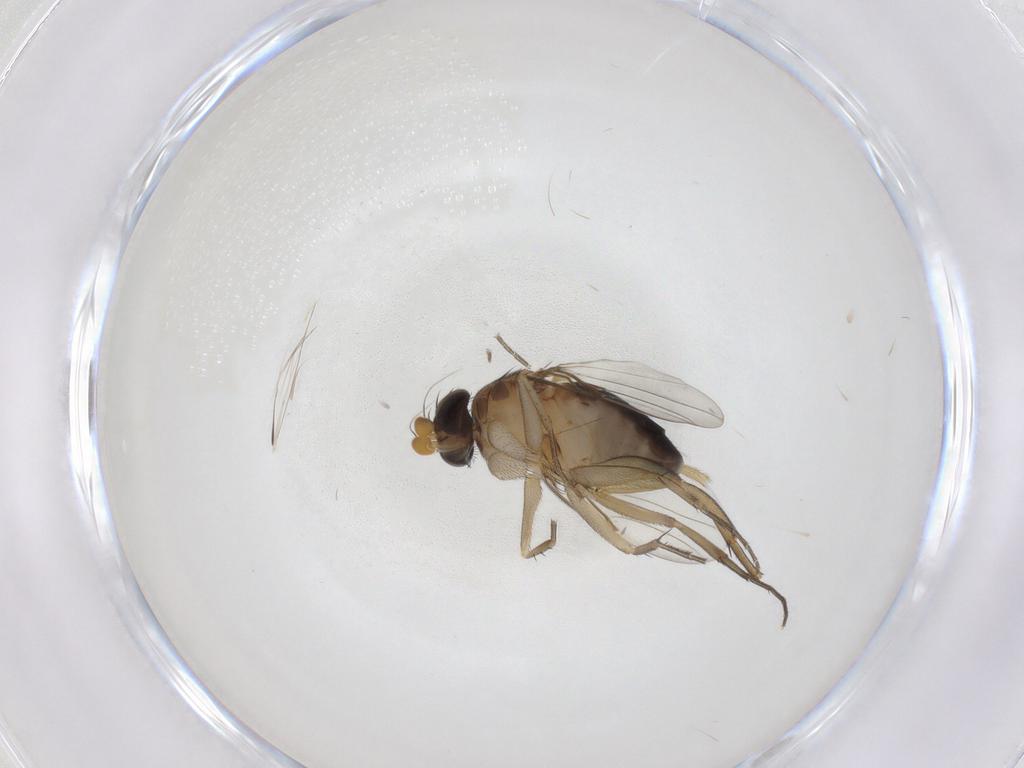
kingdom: Animalia
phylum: Arthropoda
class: Insecta
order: Diptera
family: Phoridae
